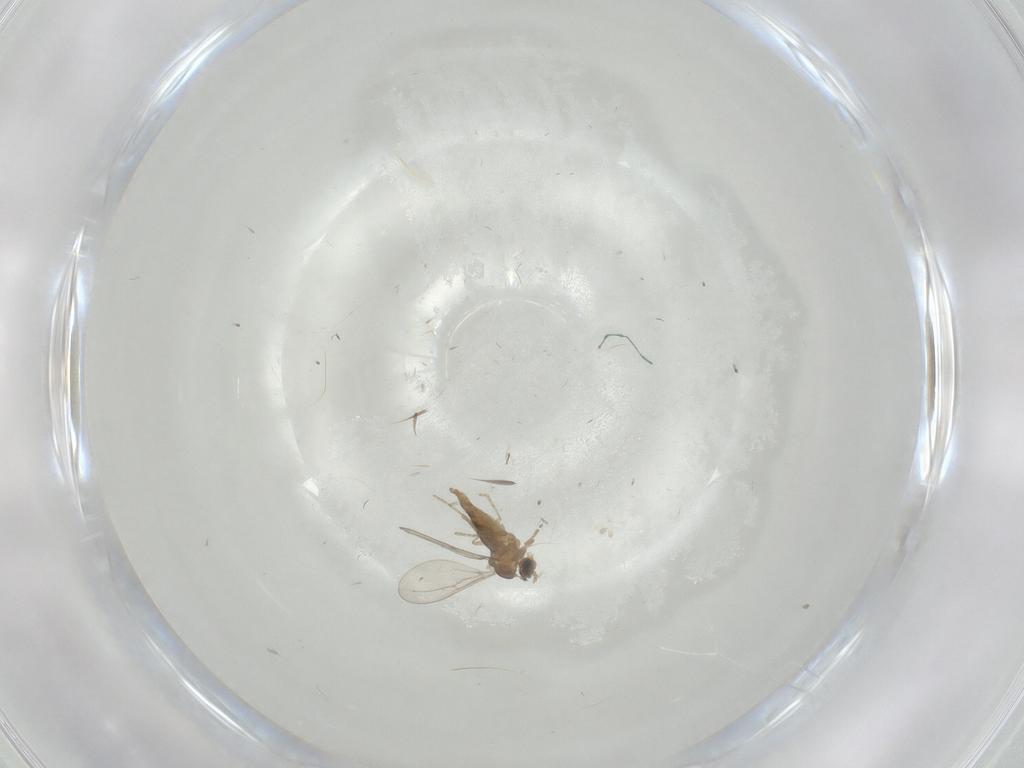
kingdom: Animalia
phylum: Arthropoda
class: Insecta
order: Diptera
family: Cecidomyiidae
